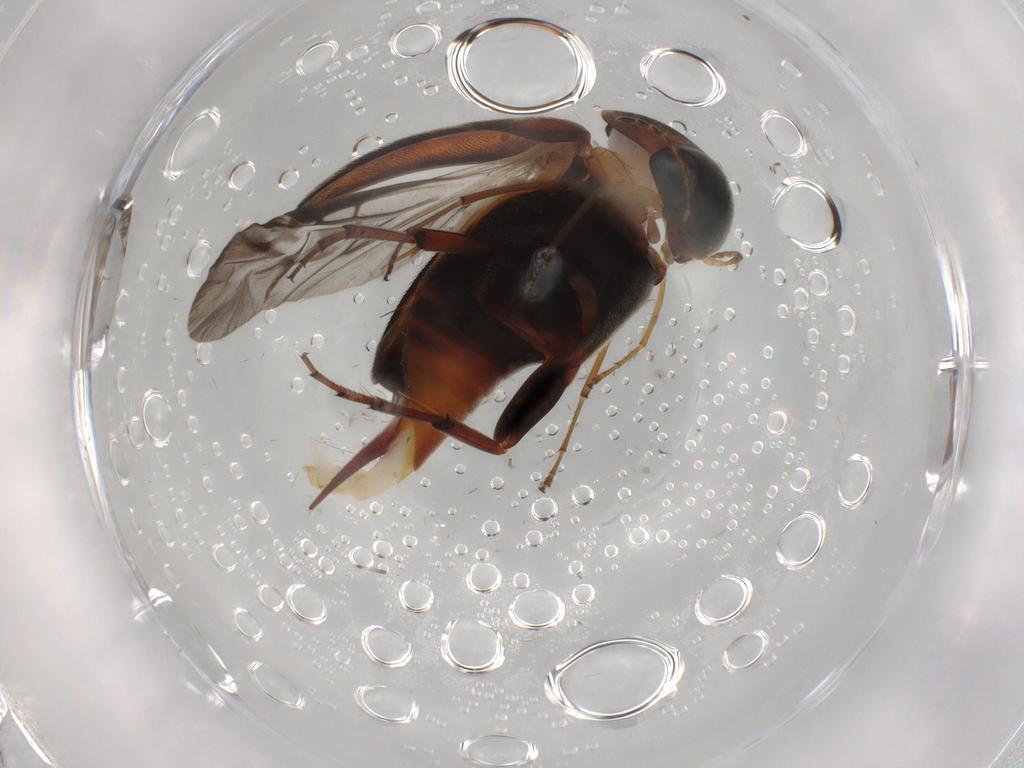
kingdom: Animalia
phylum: Arthropoda
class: Insecta
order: Coleoptera
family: Mordellidae
